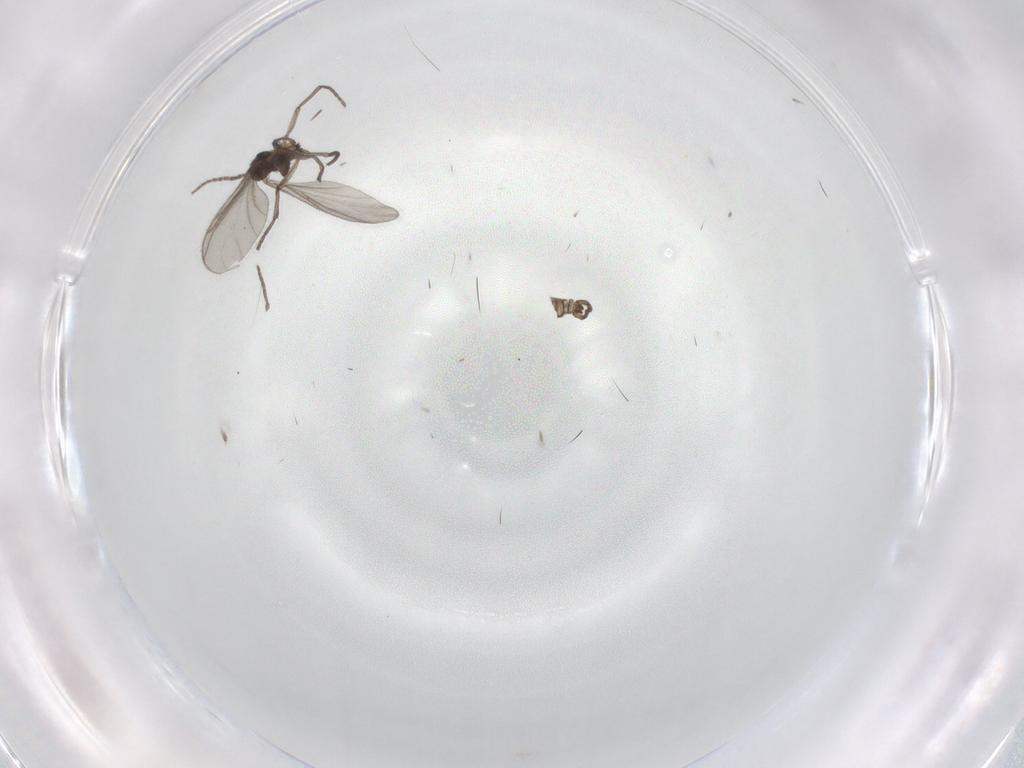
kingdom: Animalia
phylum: Arthropoda
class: Insecta
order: Diptera
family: Sciaridae
